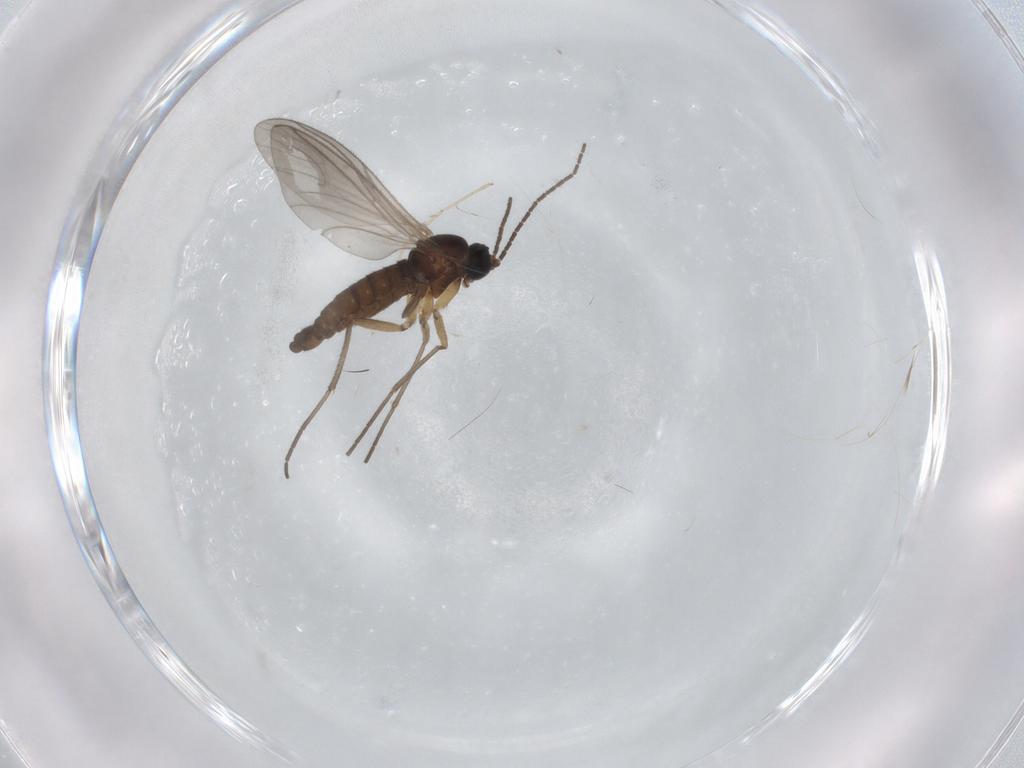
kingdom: Animalia
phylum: Arthropoda
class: Insecta
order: Diptera
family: Sciaridae
